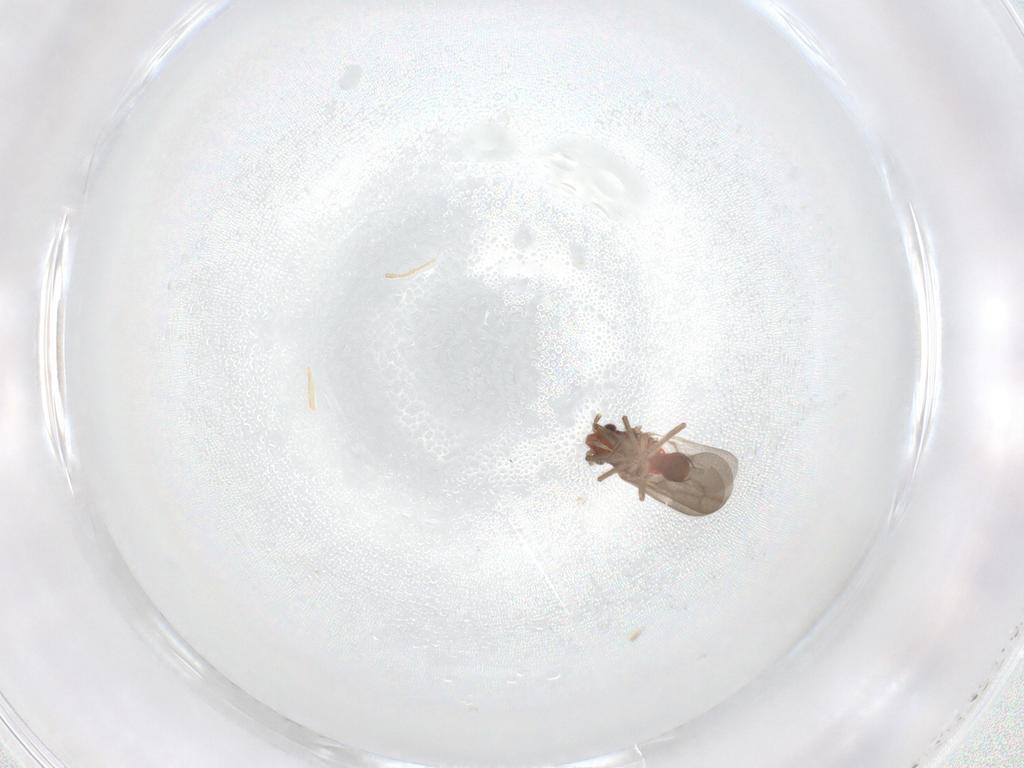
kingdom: Animalia
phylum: Arthropoda
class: Insecta
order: Hemiptera
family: Ceratocombidae
